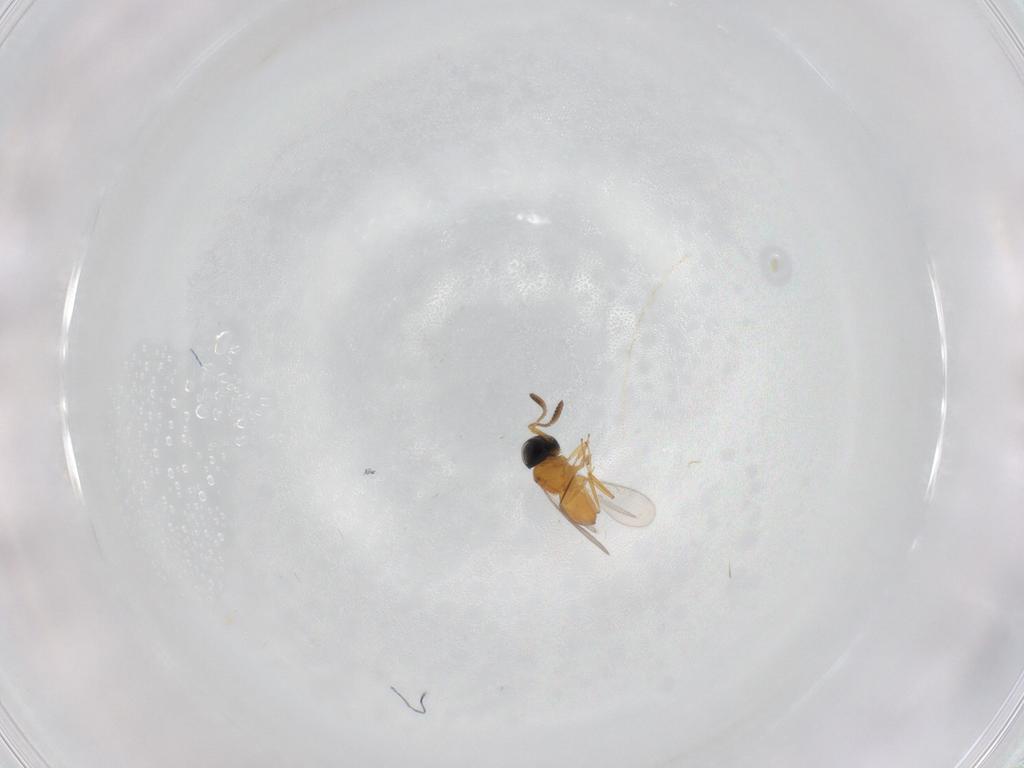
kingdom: Animalia
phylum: Arthropoda
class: Insecta
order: Hymenoptera
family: Scelionidae
